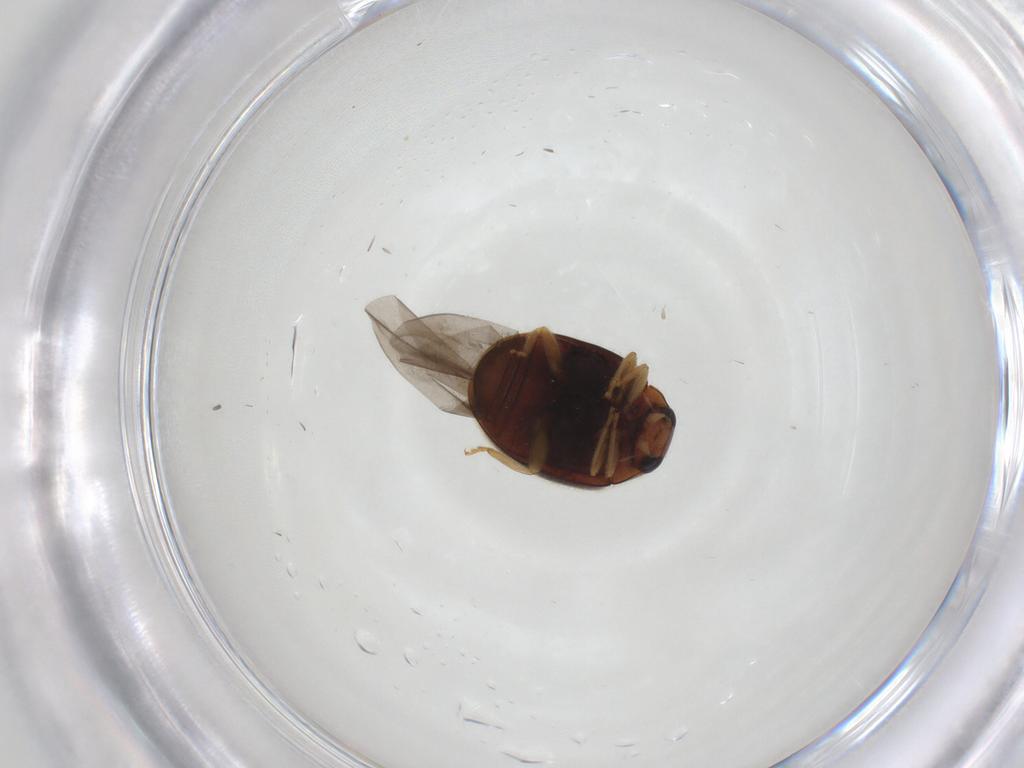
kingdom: Animalia
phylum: Arthropoda
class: Insecta
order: Coleoptera
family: Coccinellidae
